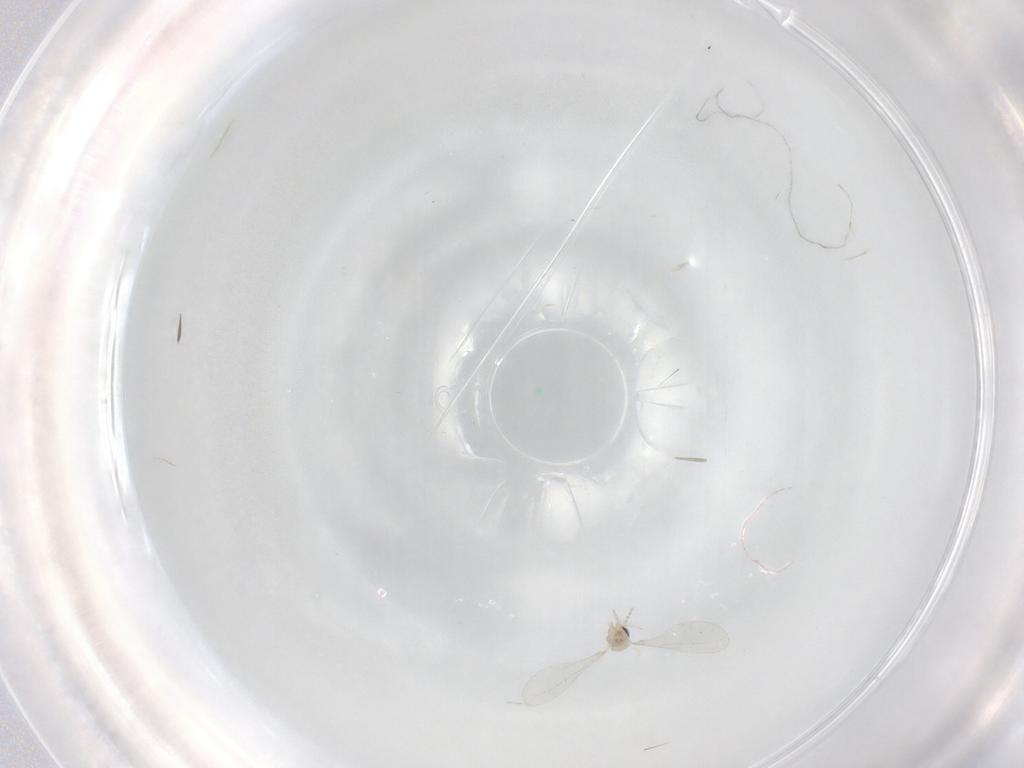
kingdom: Animalia
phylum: Arthropoda
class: Insecta
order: Diptera
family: Cecidomyiidae
